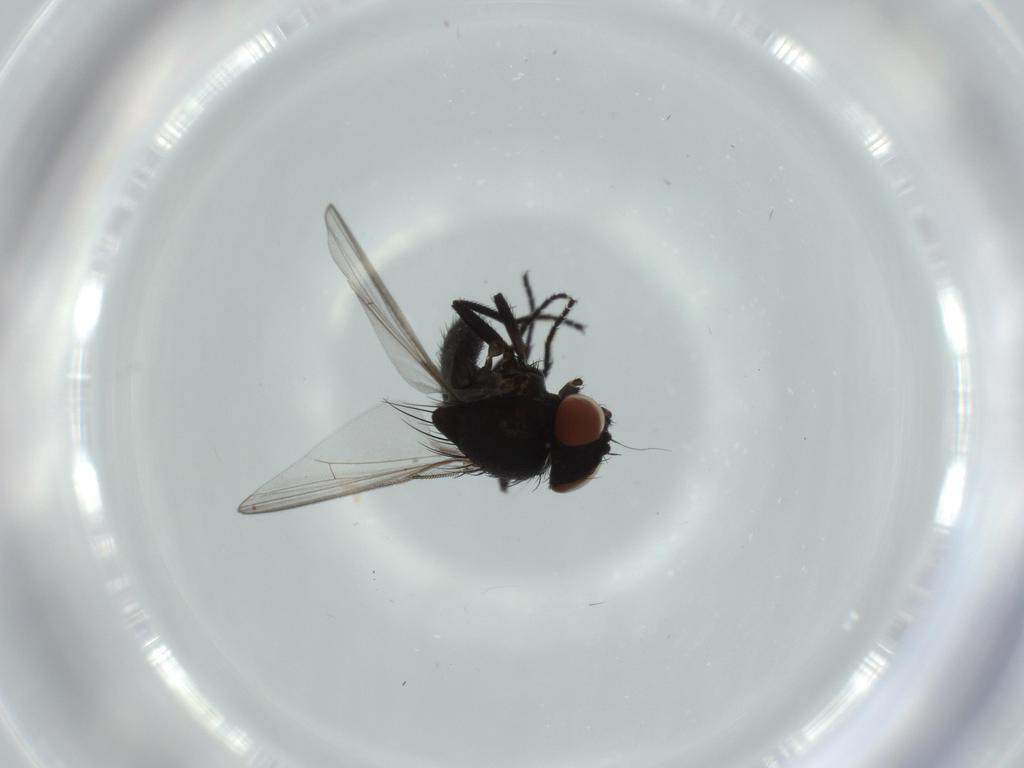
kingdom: Animalia
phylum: Arthropoda
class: Insecta
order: Diptera
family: Milichiidae
